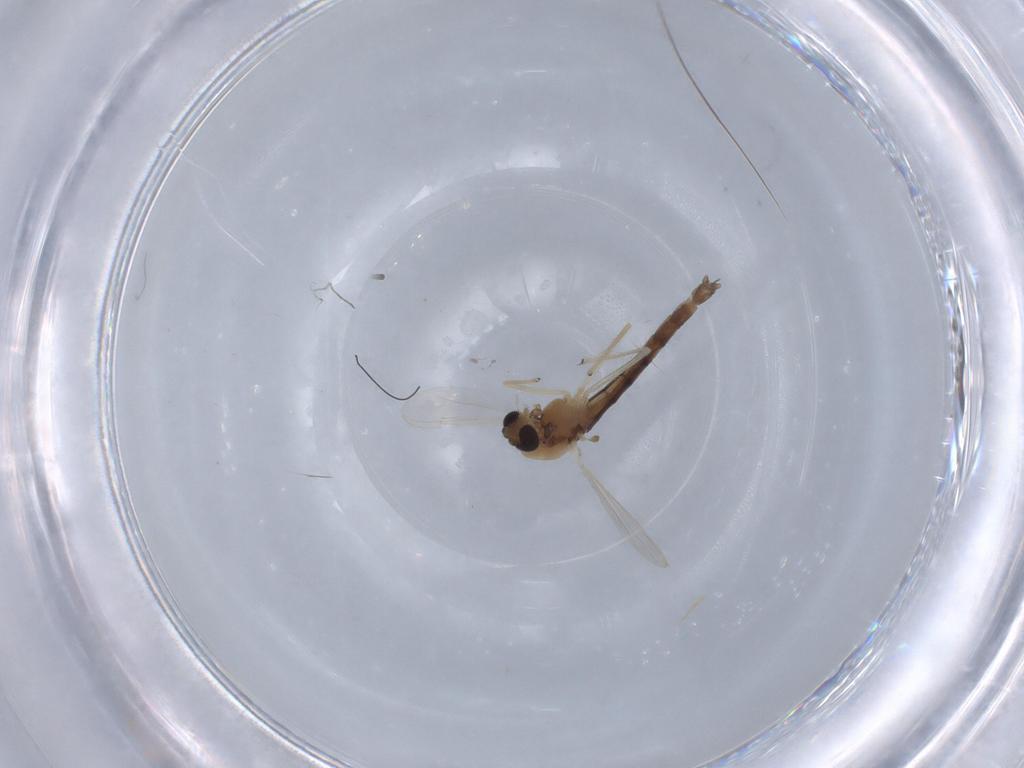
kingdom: Animalia
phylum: Arthropoda
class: Insecta
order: Diptera
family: Chironomidae
